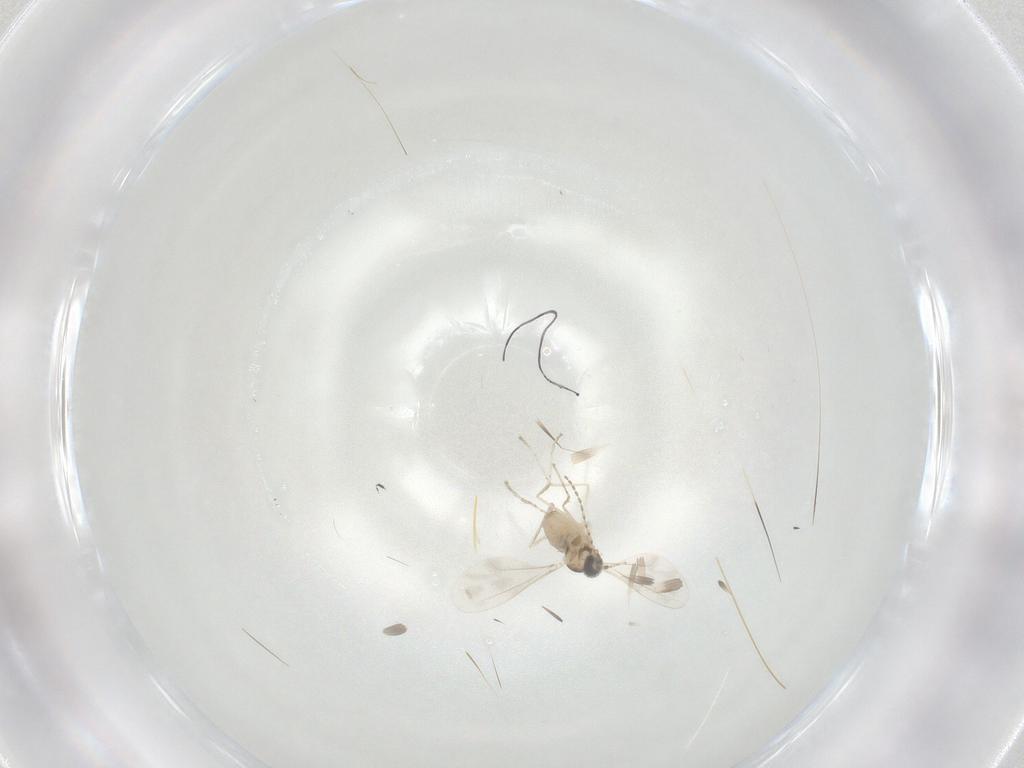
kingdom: Animalia
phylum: Arthropoda
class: Insecta
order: Diptera
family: Cecidomyiidae
